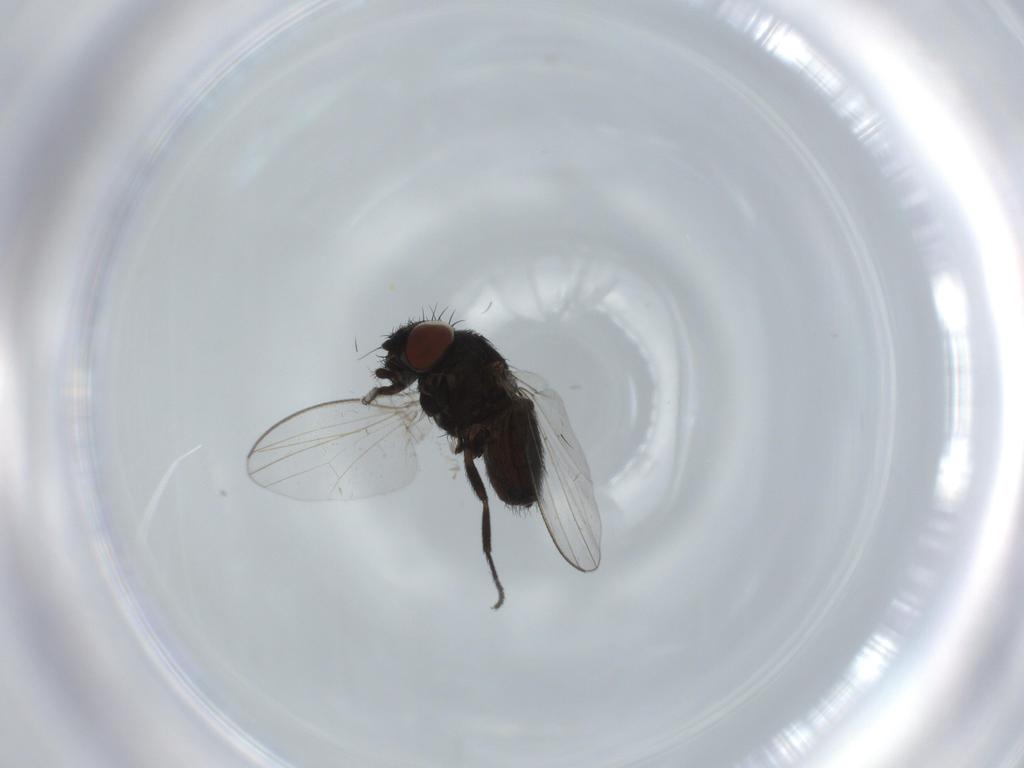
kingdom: Animalia
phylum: Arthropoda
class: Insecta
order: Diptera
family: Milichiidae
